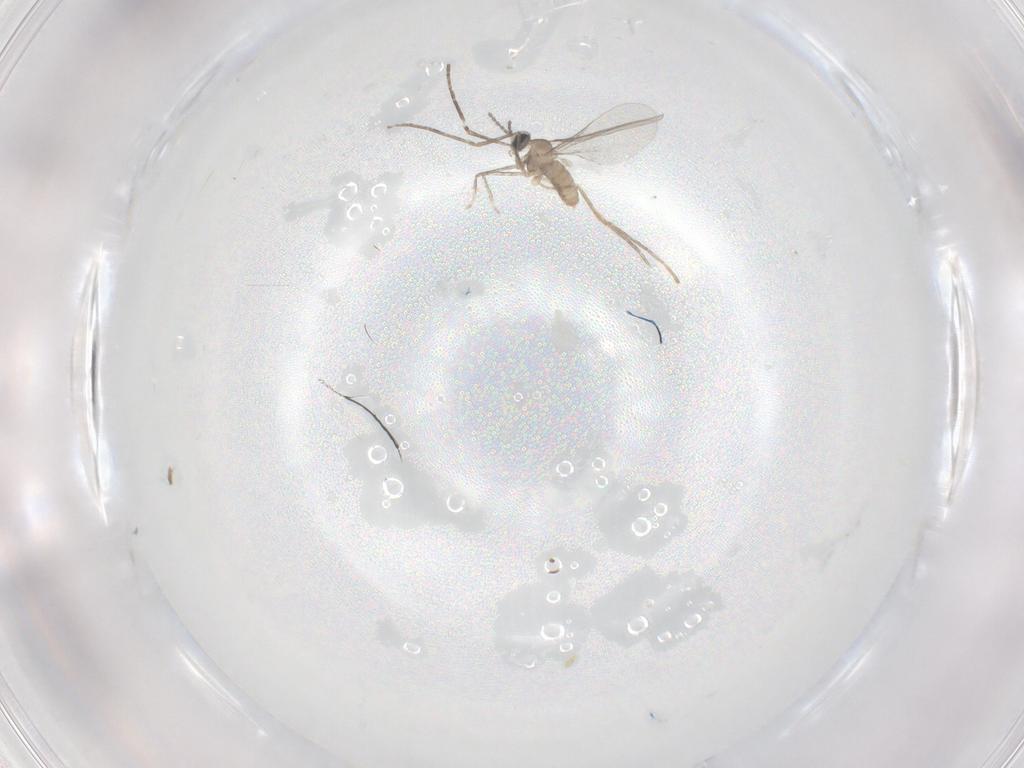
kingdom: Animalia
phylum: Arthropoda
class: Insecta
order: Diptera
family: Cecidomyiidae
